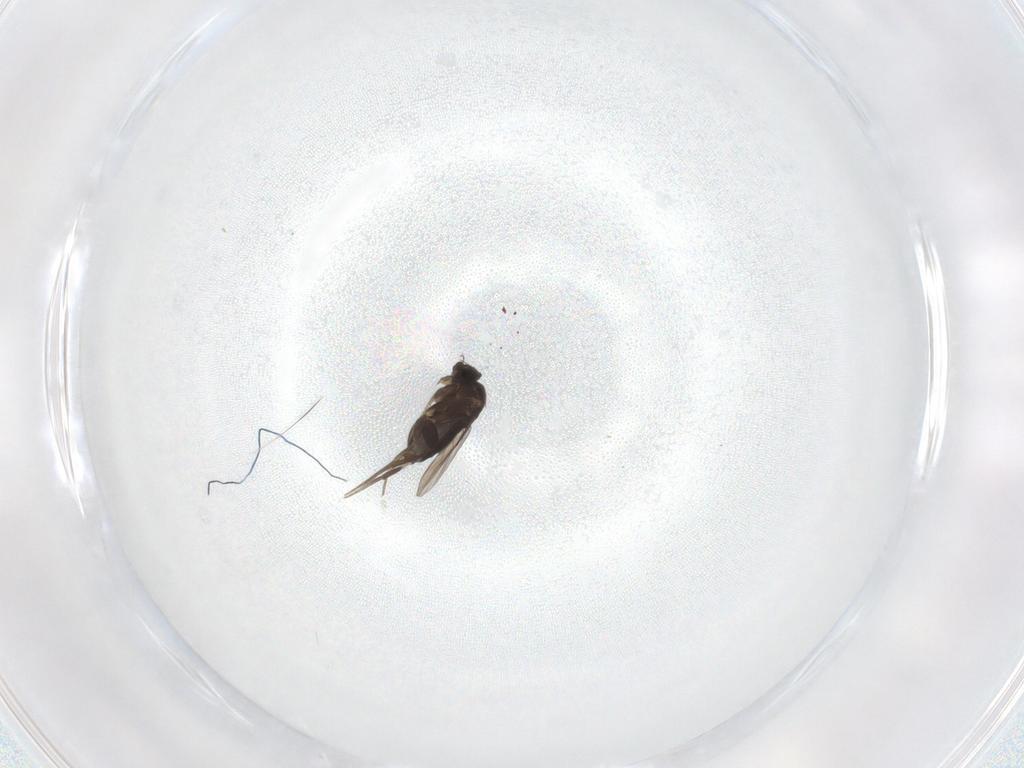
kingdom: Animalia
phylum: Arthropoda
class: Insecta
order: Diptera
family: Phoridae
